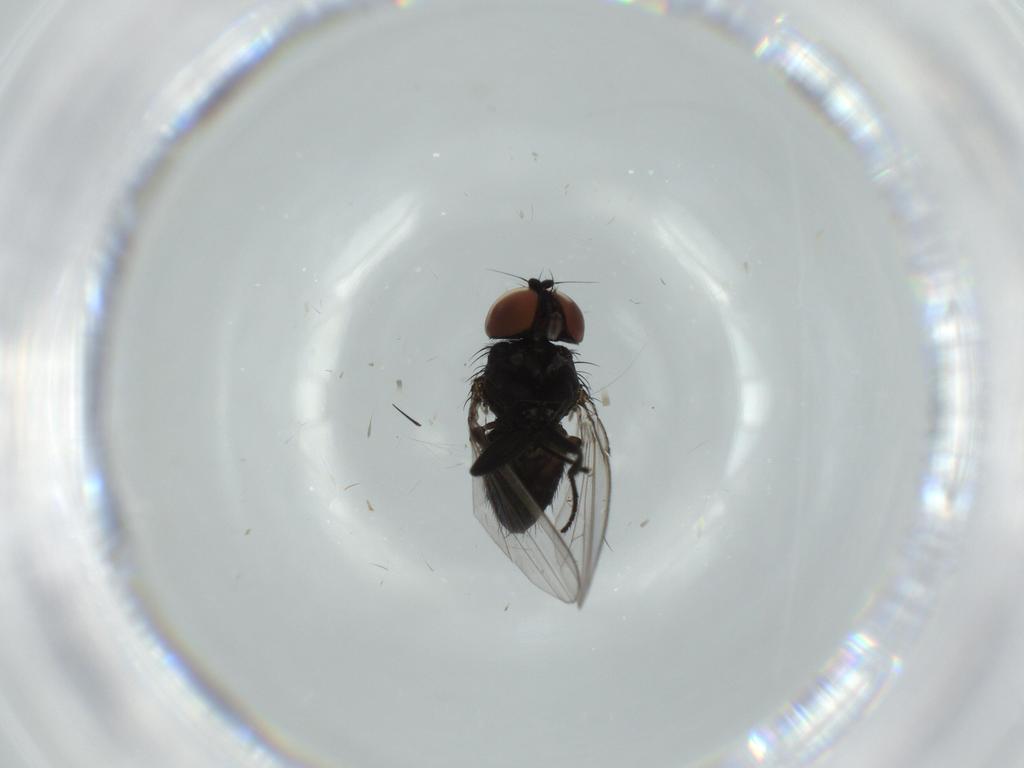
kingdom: Animalia
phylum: Arthropoda
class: Insecta
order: Diptera
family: Milichiidae
